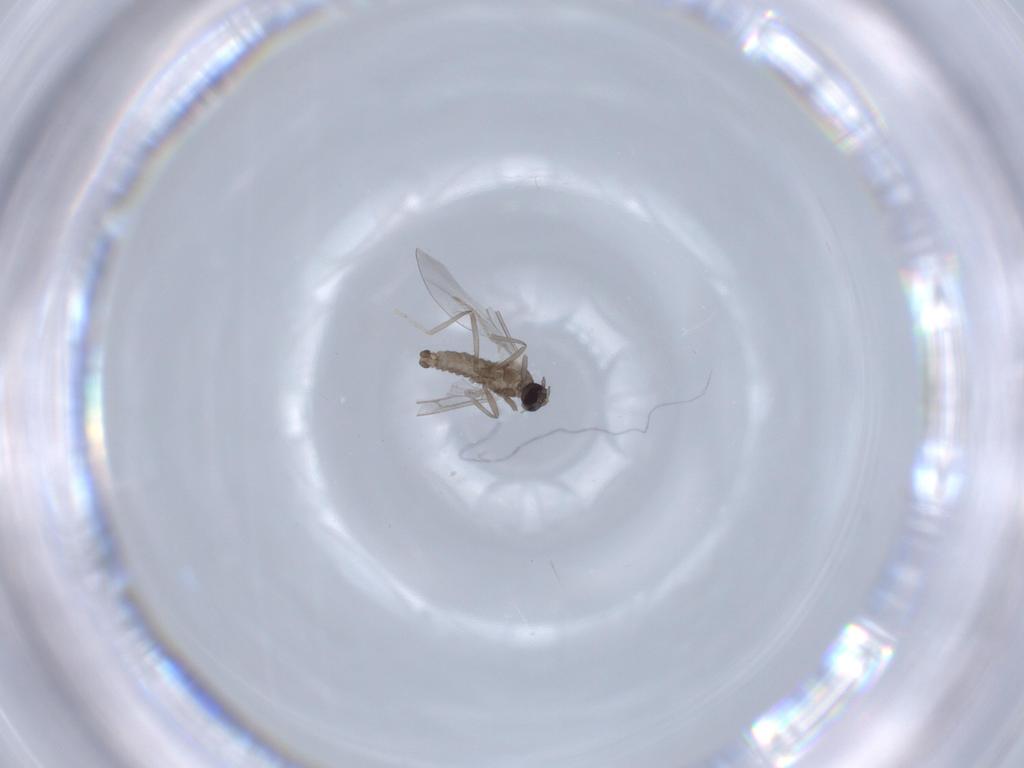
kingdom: Animalia
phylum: Arthropoda
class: Insecta
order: Diptera
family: Cecidomyiidae
